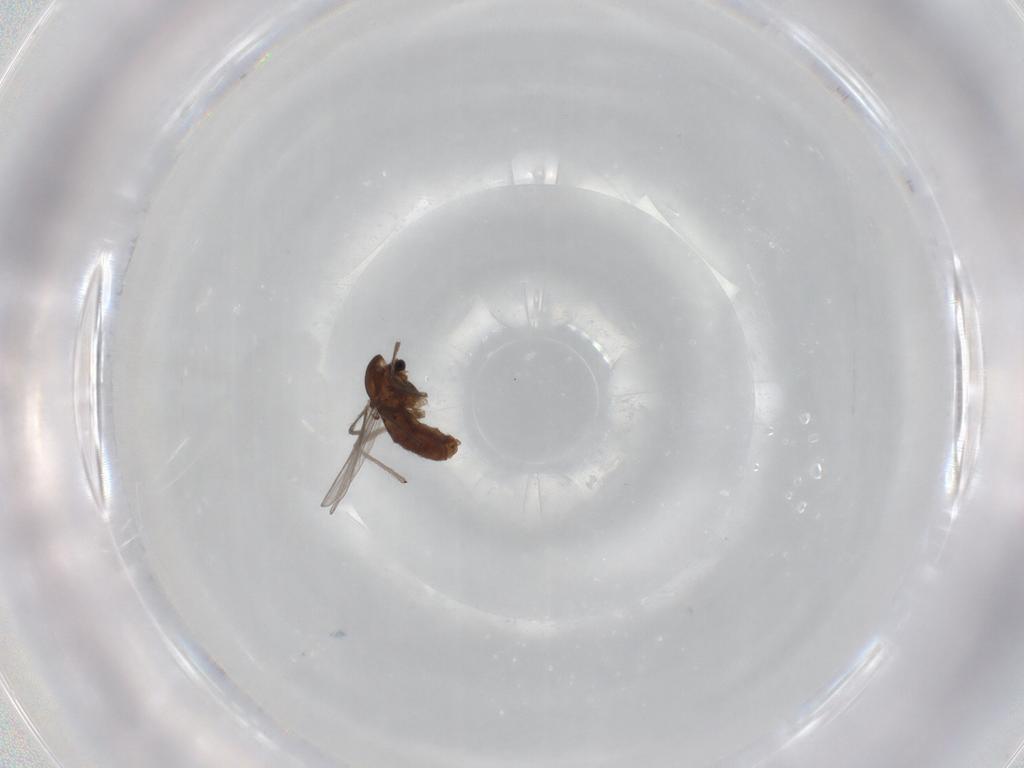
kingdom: Animalia
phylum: Arthropoda
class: Insecta
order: Diptera
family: Chironomidae
